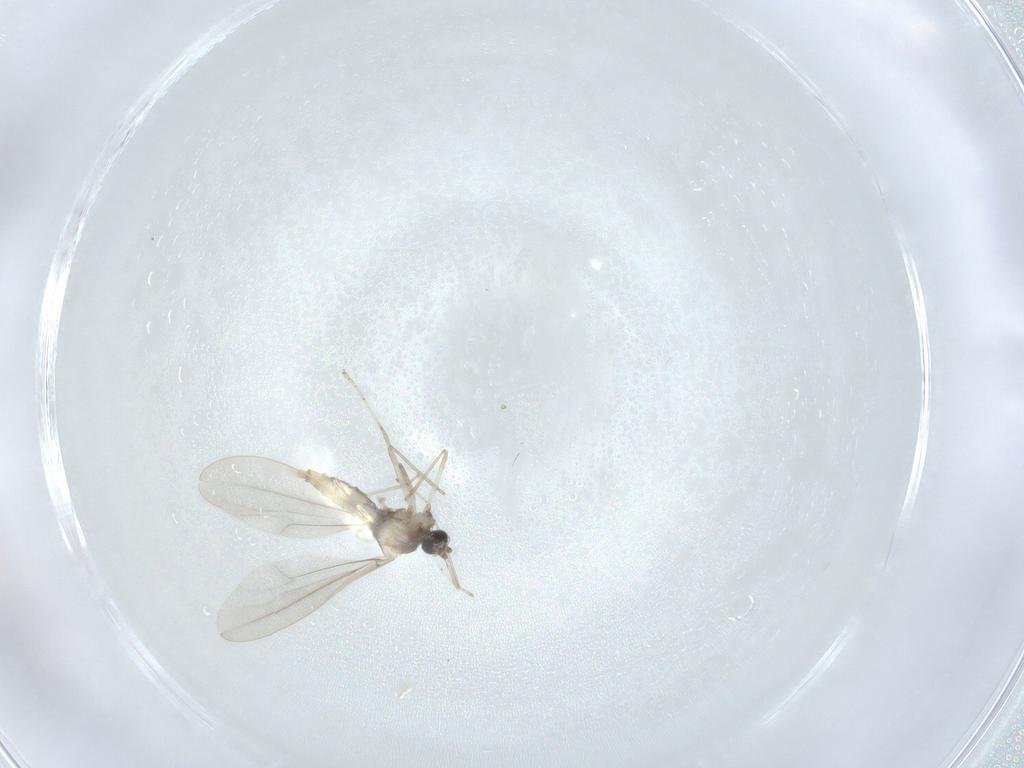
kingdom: Animalia
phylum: Arthropoda
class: Insecta
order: Diptera
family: Cecidomyiidae
